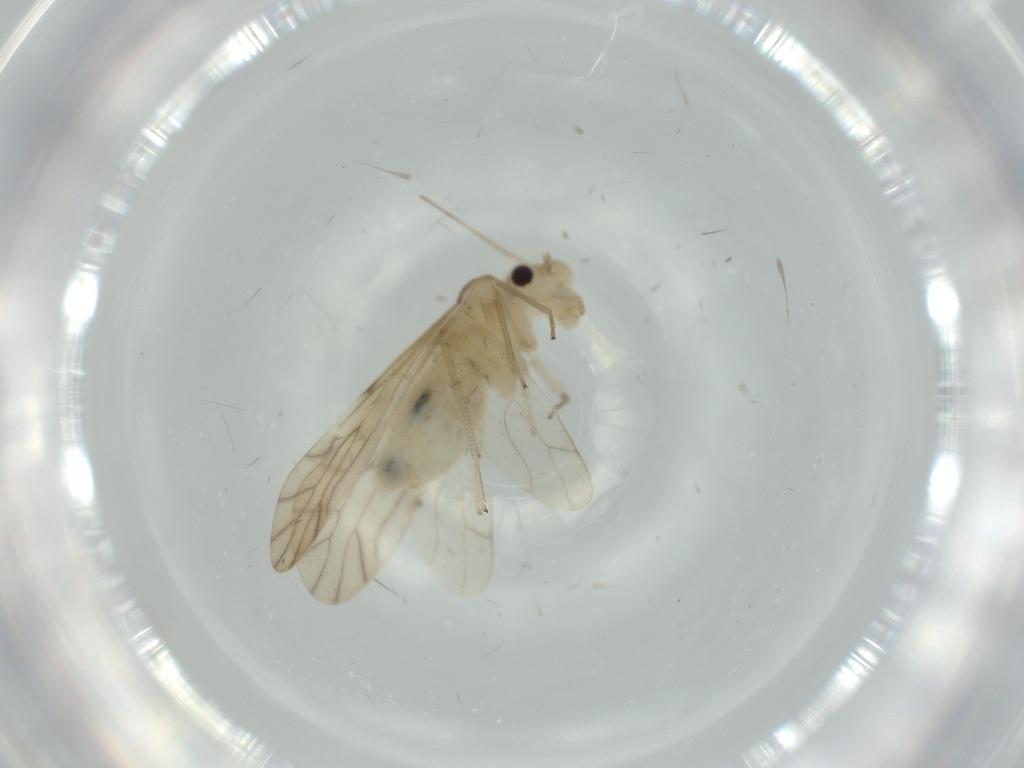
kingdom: Animalia
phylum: Arthropoda
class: Insecta
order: Psocodea
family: Caeciliusidae
